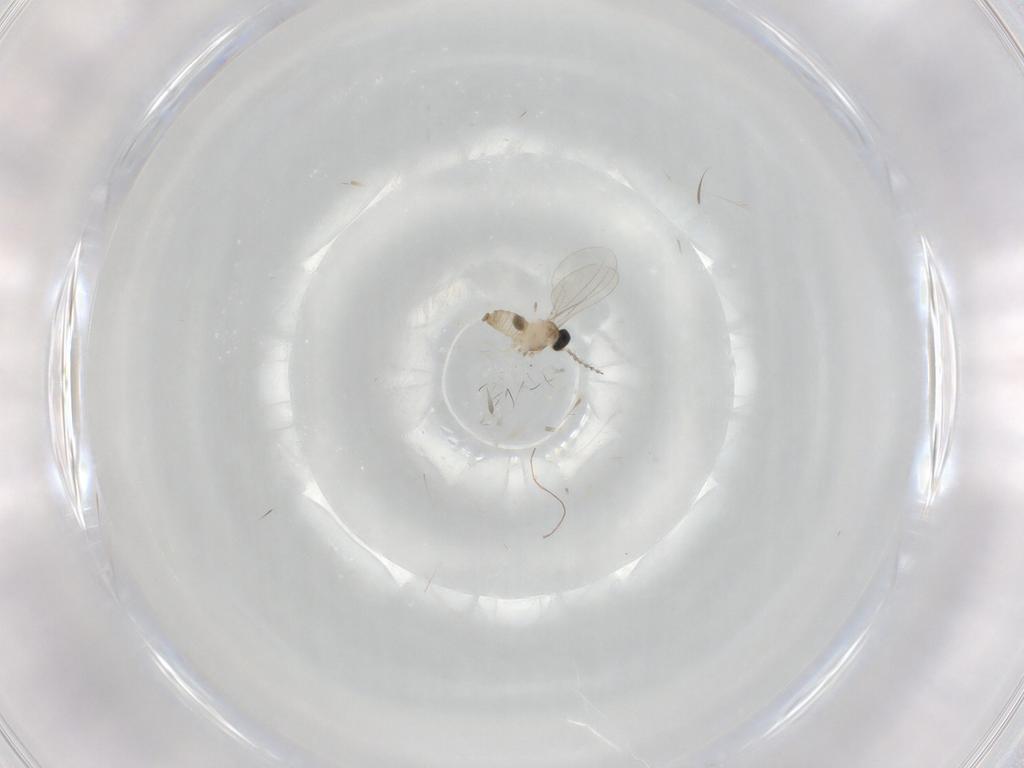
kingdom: Animalia
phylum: Arthropoda
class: Insecta
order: Diptera
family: Cecidomyiidae
